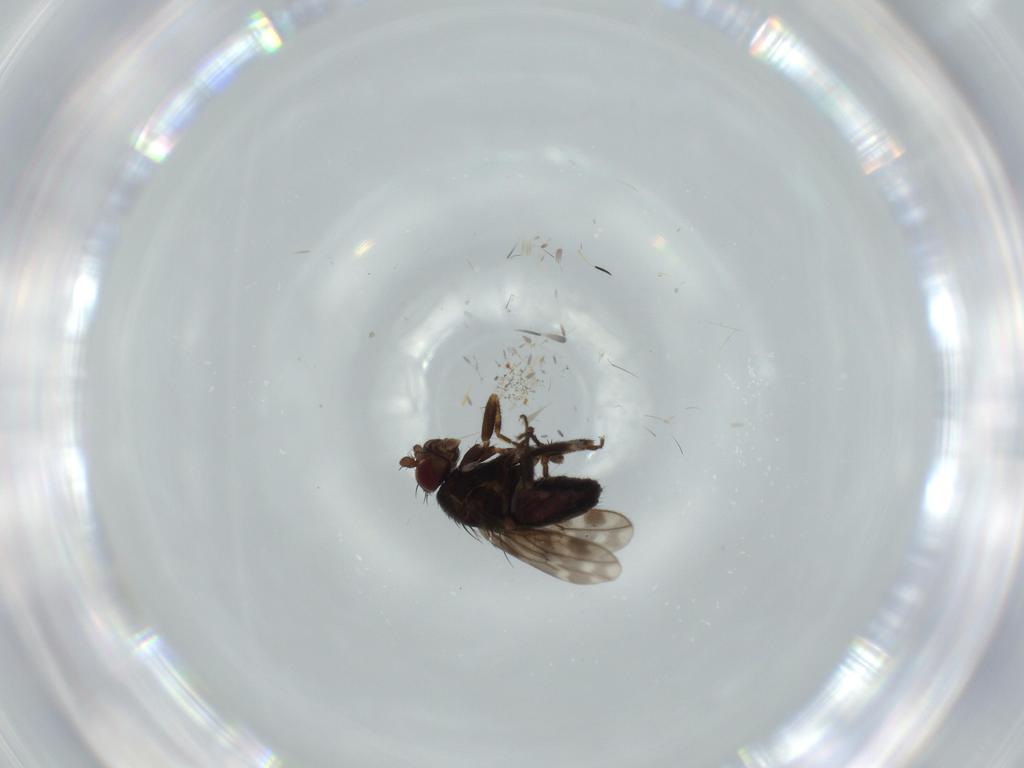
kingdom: Animalia
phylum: Arthropoda
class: Insecta
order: Diptera
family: Sphaeroceridae
